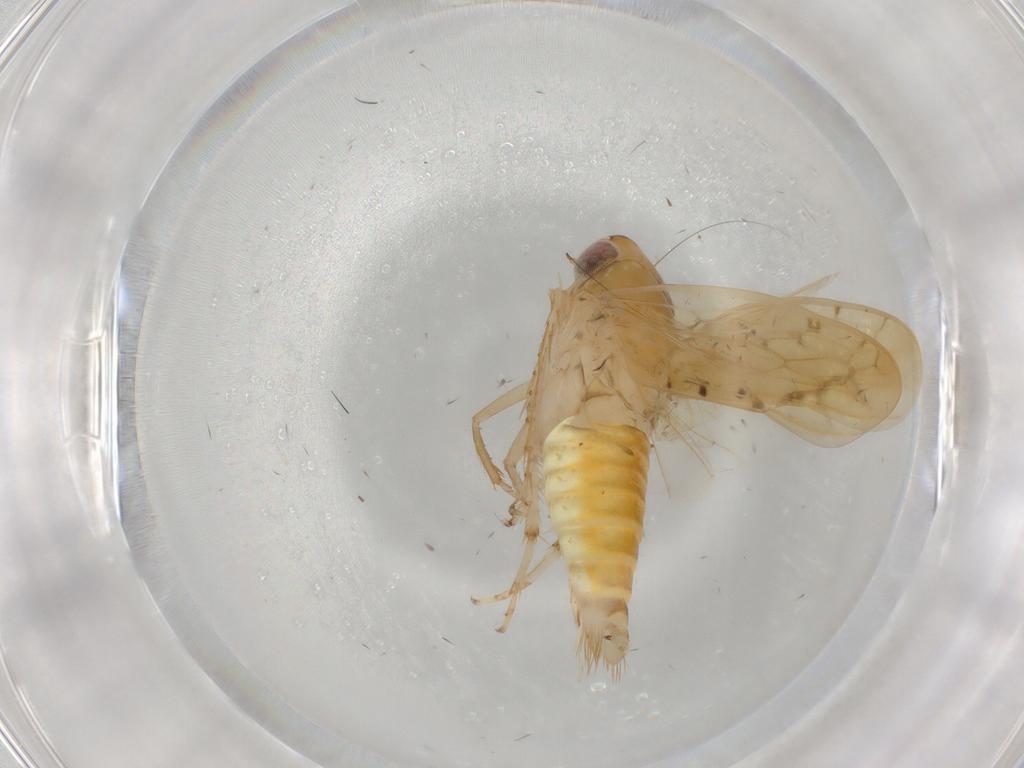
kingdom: Animalia
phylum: Arthropoda
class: Insecta
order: Hemiptera
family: Cicadellidae
